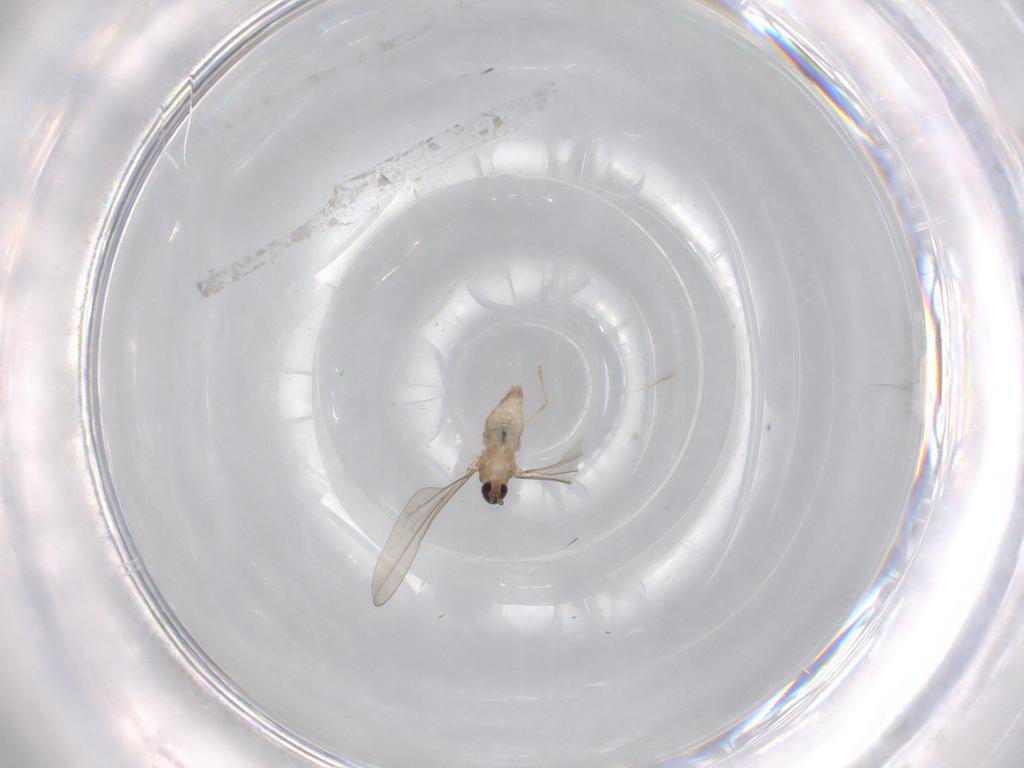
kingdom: Animalia
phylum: Arthropoda
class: Insecta
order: Diptera
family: Cecidomyiidae
